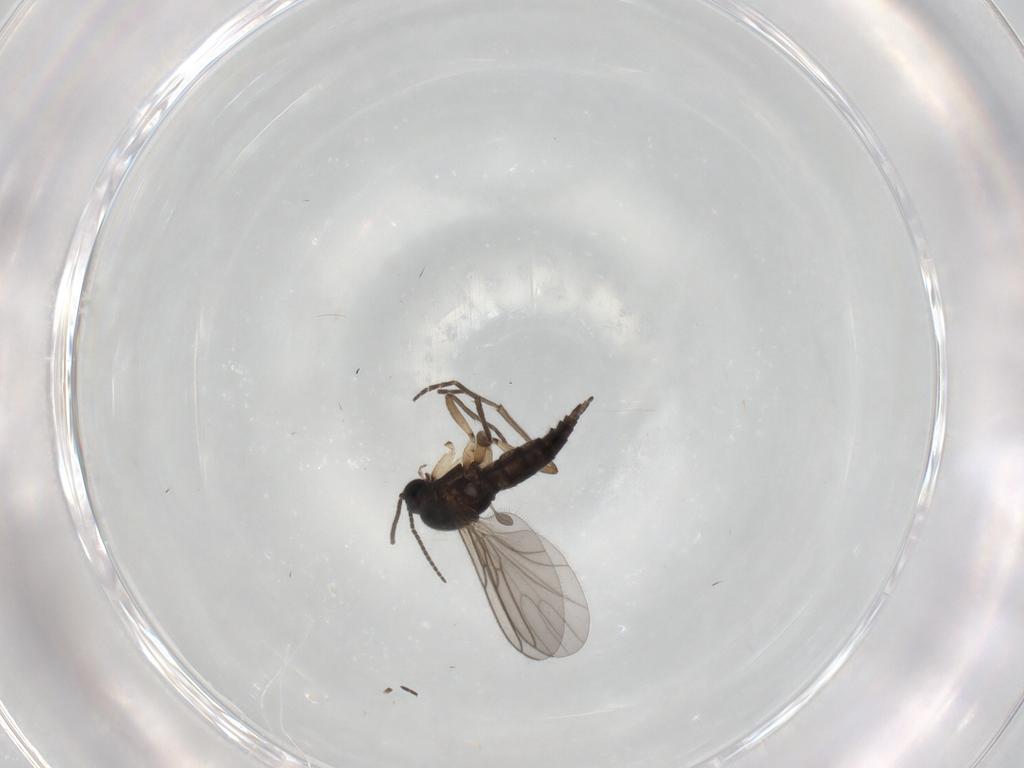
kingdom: Animalia
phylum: Arthropoda
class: Insecta
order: Diptera
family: Sciaridae
